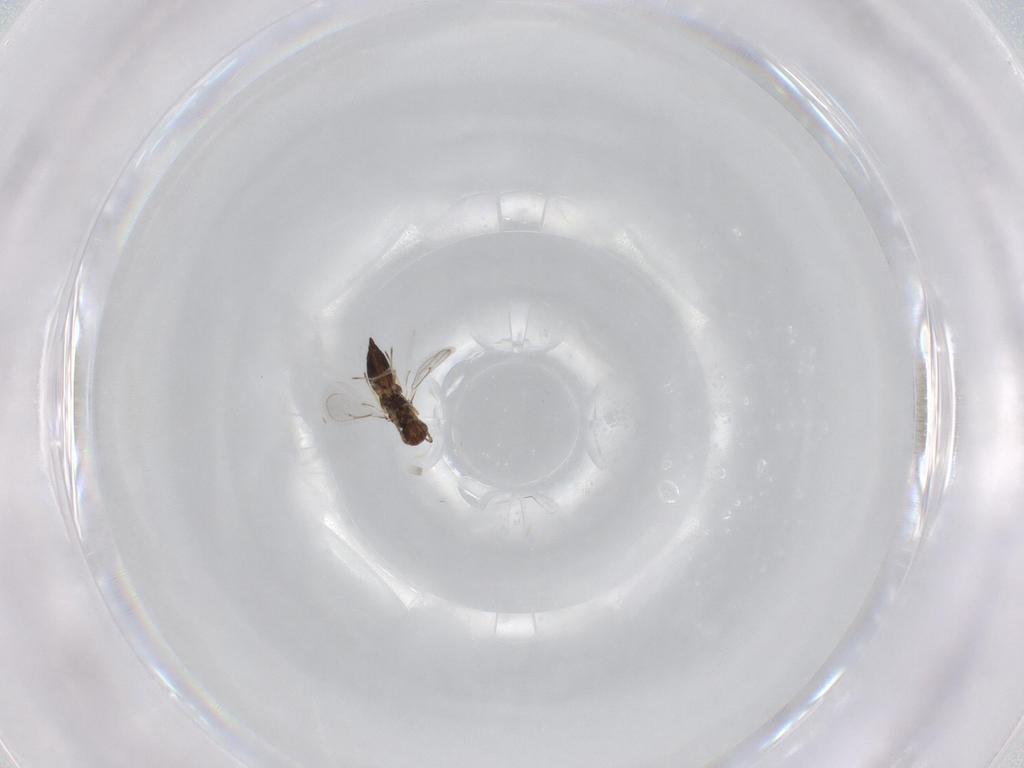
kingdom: Animalia
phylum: Arthropoda
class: Insecta
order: Hymenoptera
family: Eulophidae
